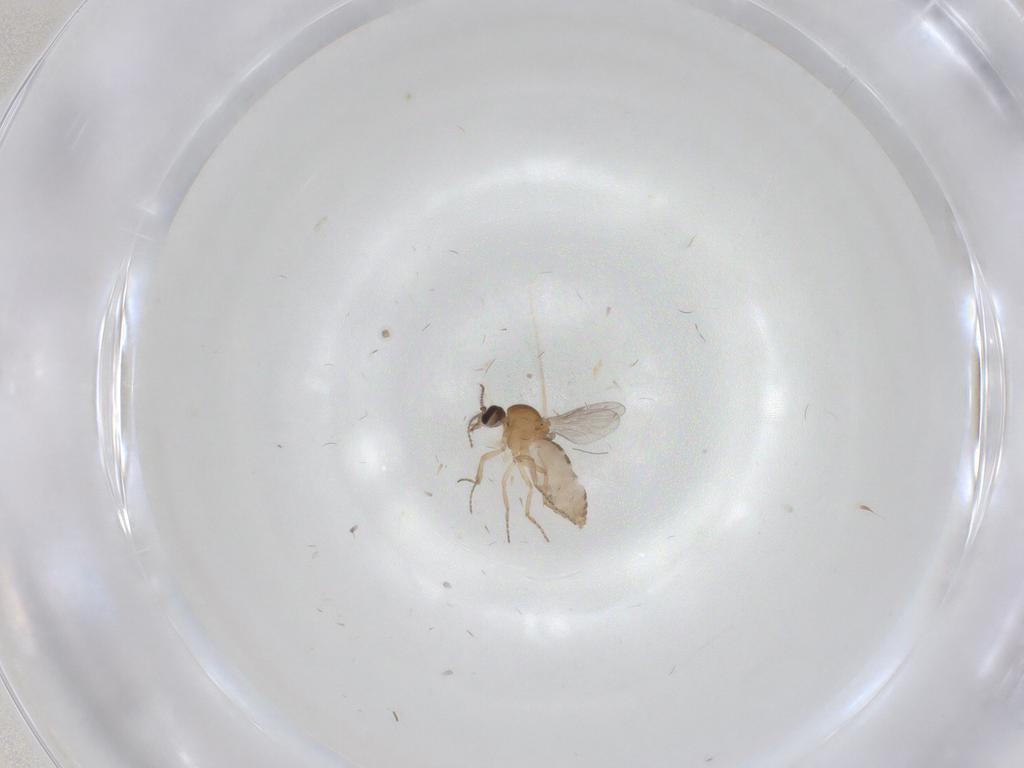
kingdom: Animalia
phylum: Arthropoda
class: Insecta
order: Diptera
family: Ceratopogonidae
